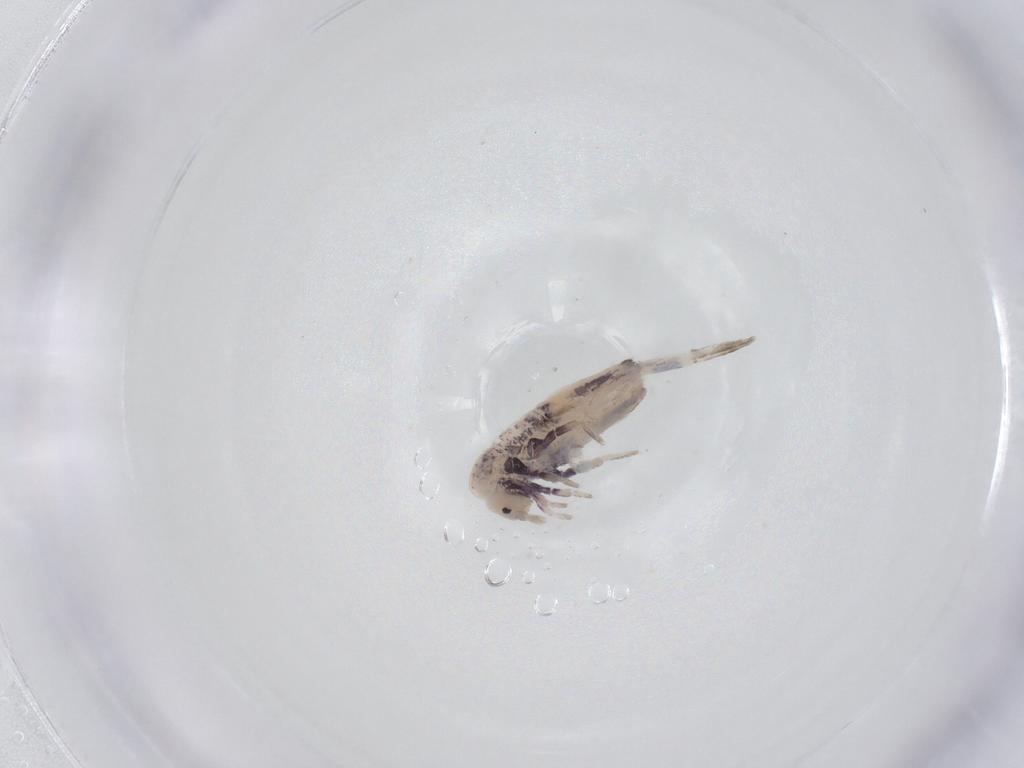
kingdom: Animalia
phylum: Arthropoda
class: Collembola
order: Entomobryomorpha
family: Entomobryidae
